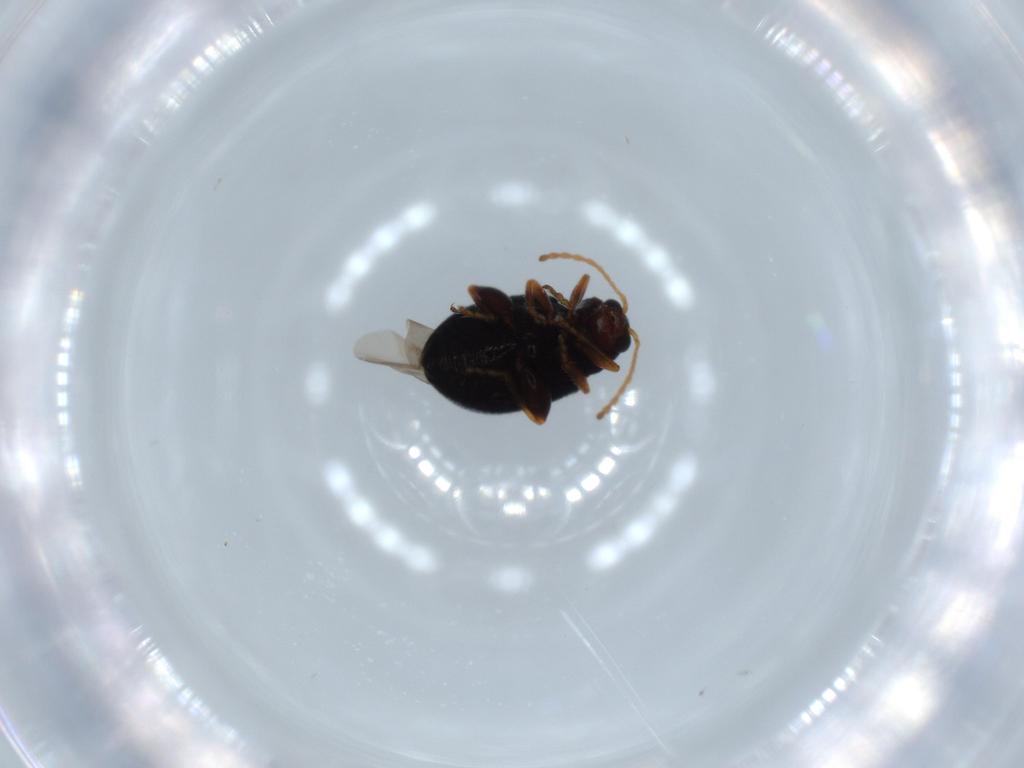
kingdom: Animalia
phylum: Arthropoda
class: Insecta
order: Coleoptera
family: Chrysomelidae
